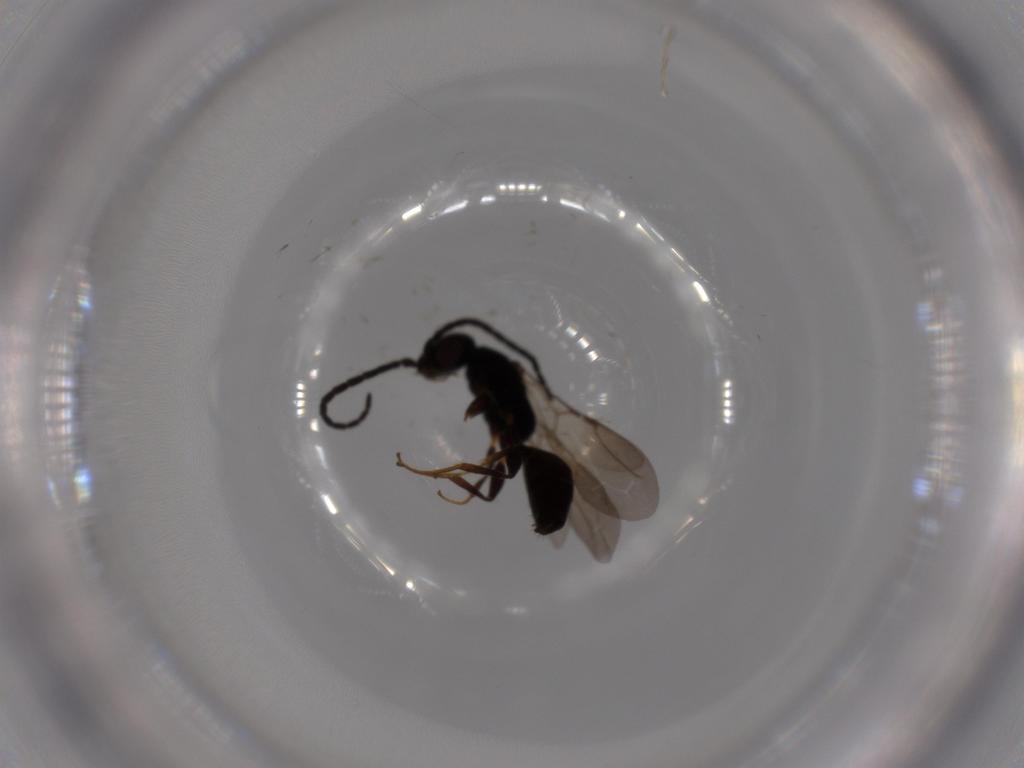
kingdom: Animalia
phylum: Arthropoda
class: Insecta
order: Hymenoptera
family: Bethylidae
